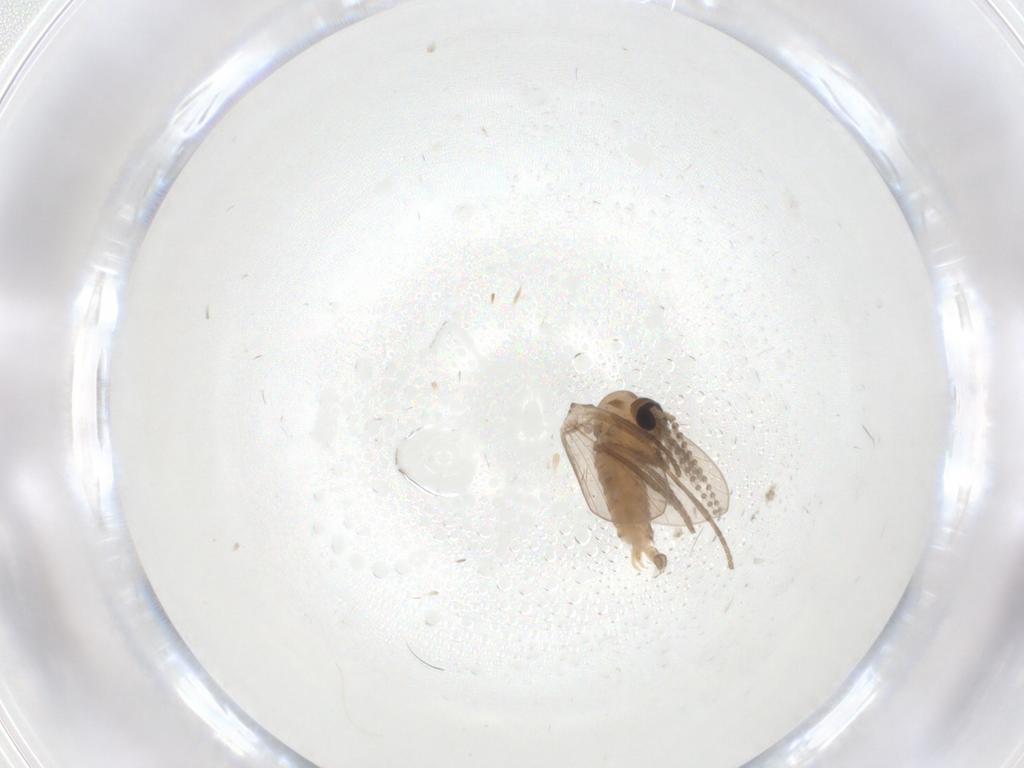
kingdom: Animalia
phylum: Arthropoda
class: Insecta
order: Diptera
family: Psychodidae
